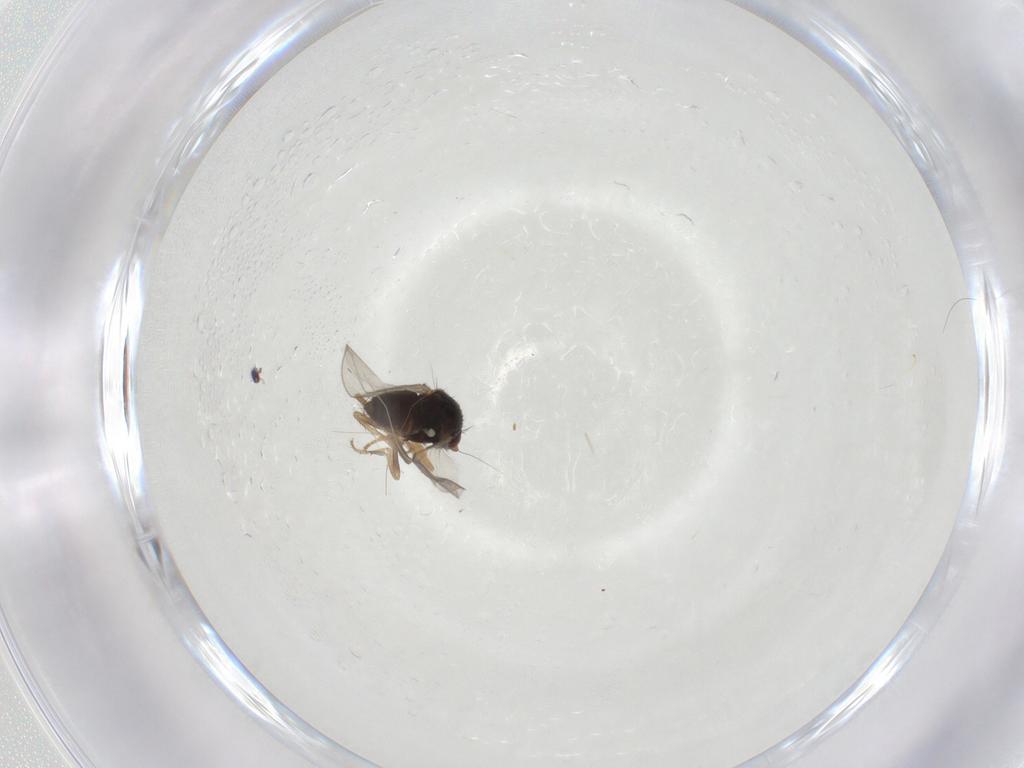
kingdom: Animalia
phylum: Arthropoda
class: Insecta
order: Diptera
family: Sphaeroceridae
